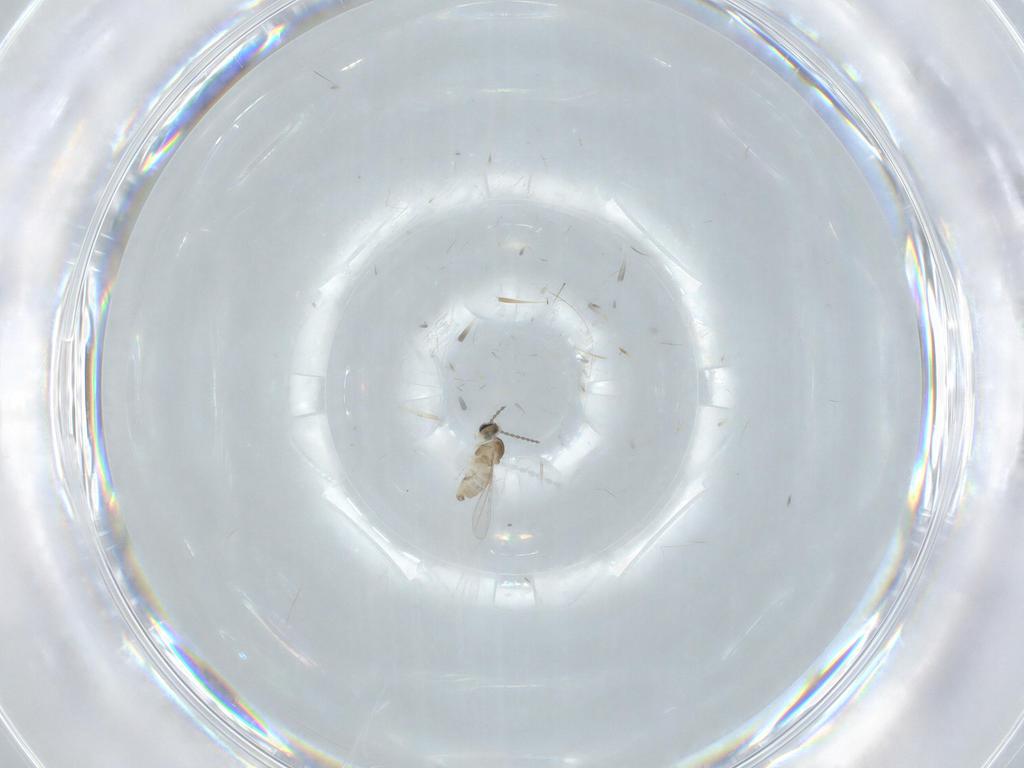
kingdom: Animalia
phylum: Arthropoda
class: Insecta
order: Diptera
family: Cecidomyiidae
